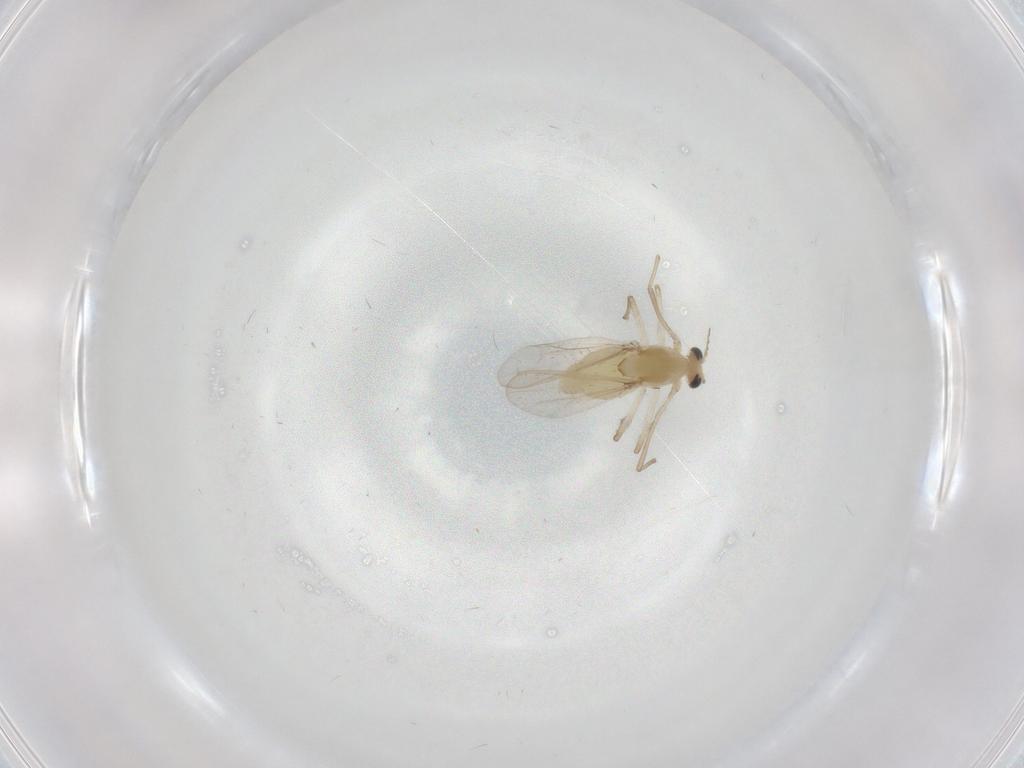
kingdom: Animalia
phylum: Arthropoda
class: Insecta
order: Diptera
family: Chironomidae
